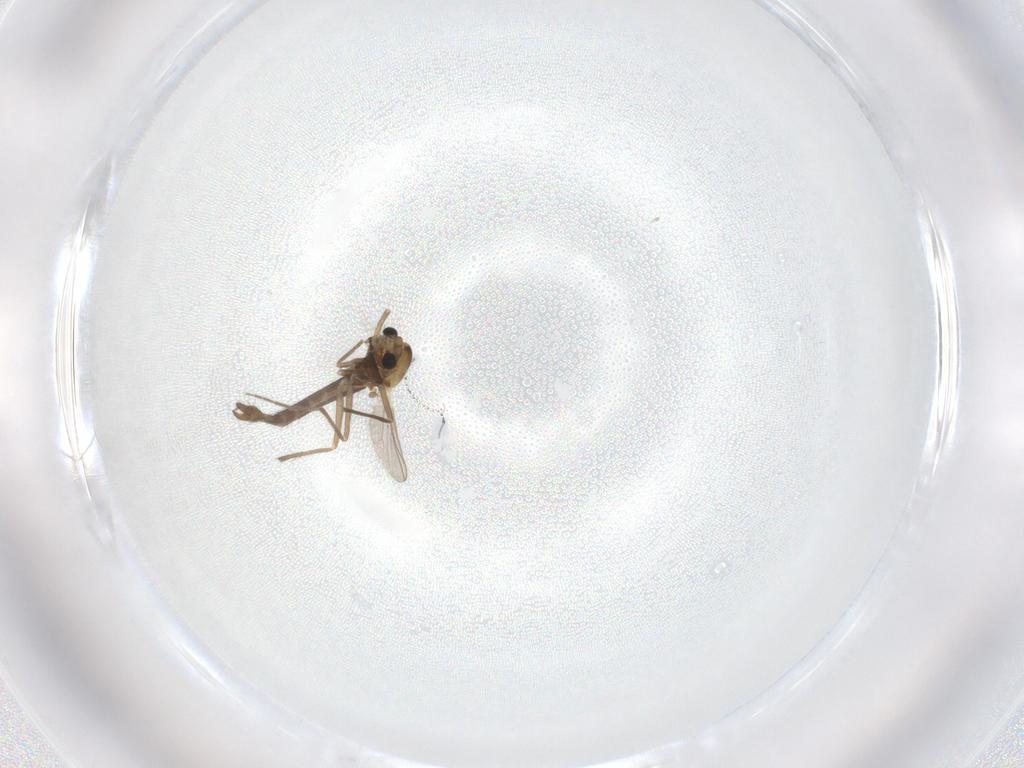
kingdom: Animalia
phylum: Arthropoda
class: Insecta
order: Diptera
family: Chironomidae
